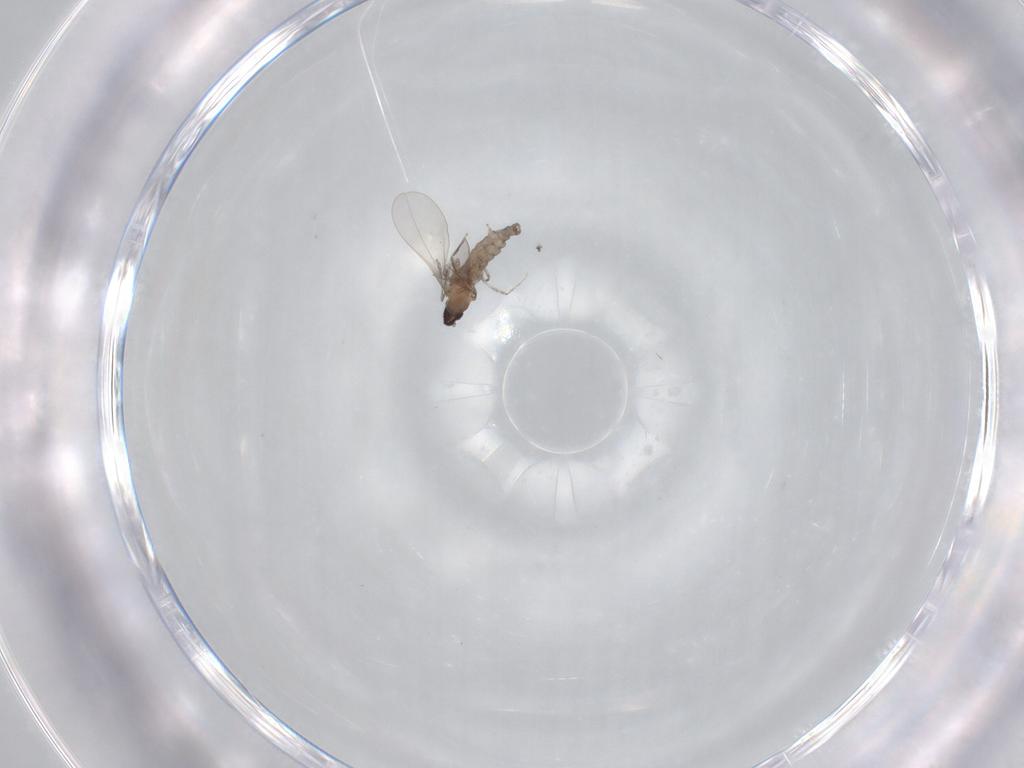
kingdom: Animalia
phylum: Arthropoda
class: Insecta
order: Diptera
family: Cecidomyiidae
